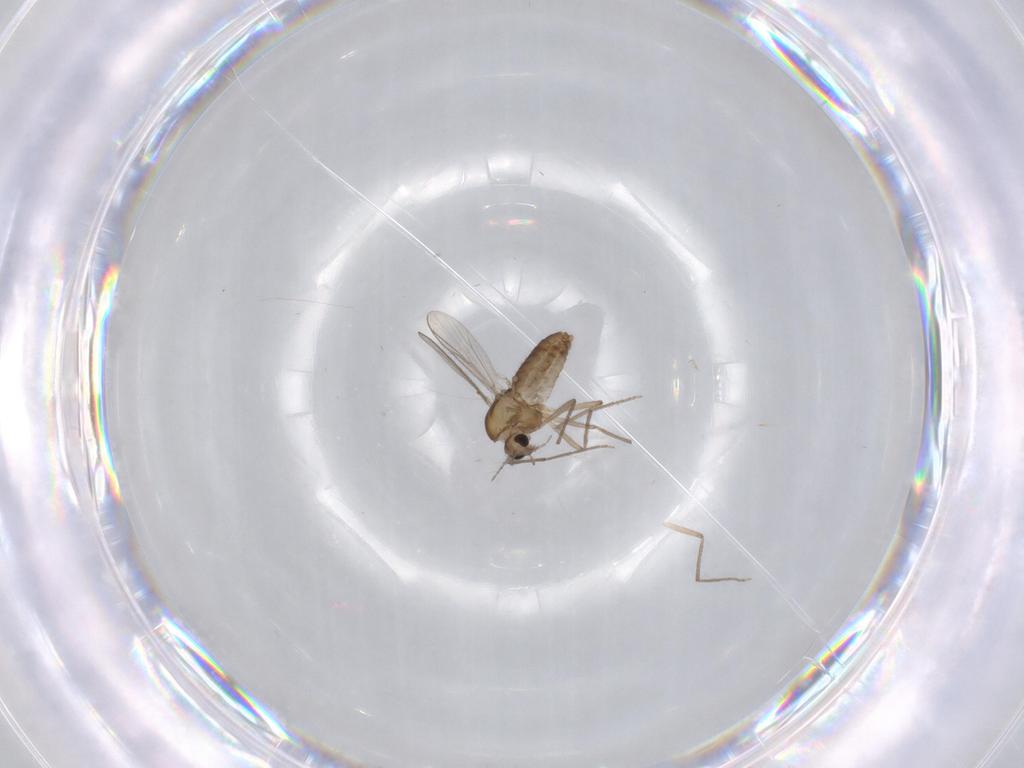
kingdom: Animalia
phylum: Arthropoda
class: Insecta
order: Diptera
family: Chironomidae
